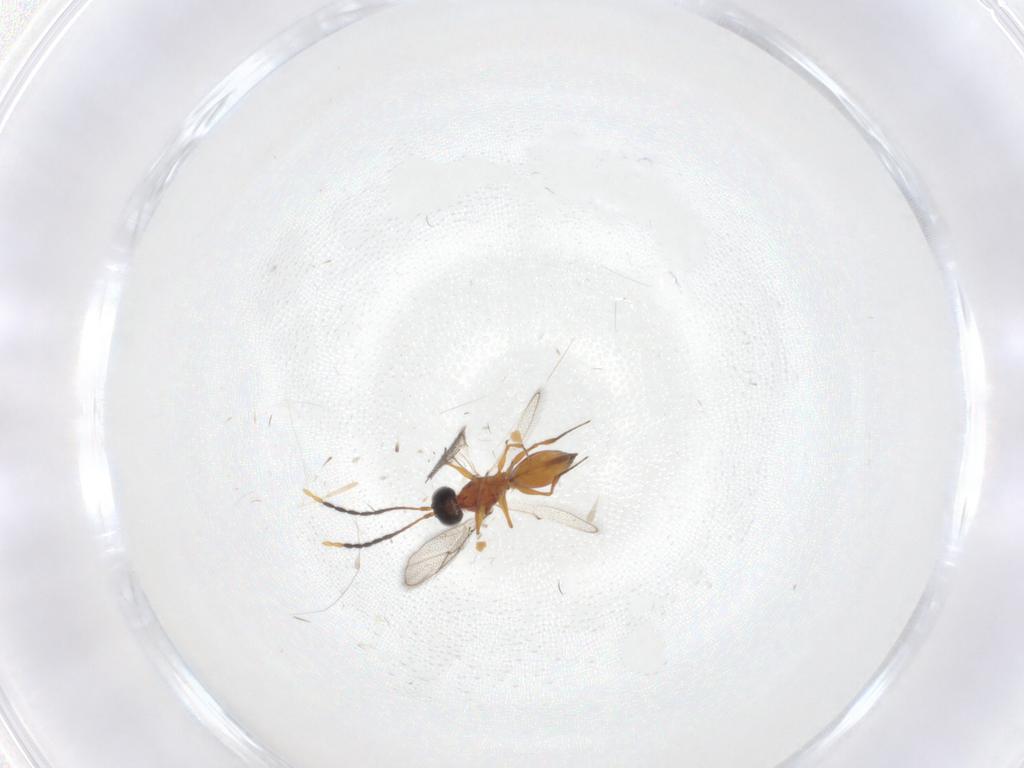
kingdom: Animalia
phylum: Arthropoda
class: Insecta
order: Hymenoptera
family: Figitidae
